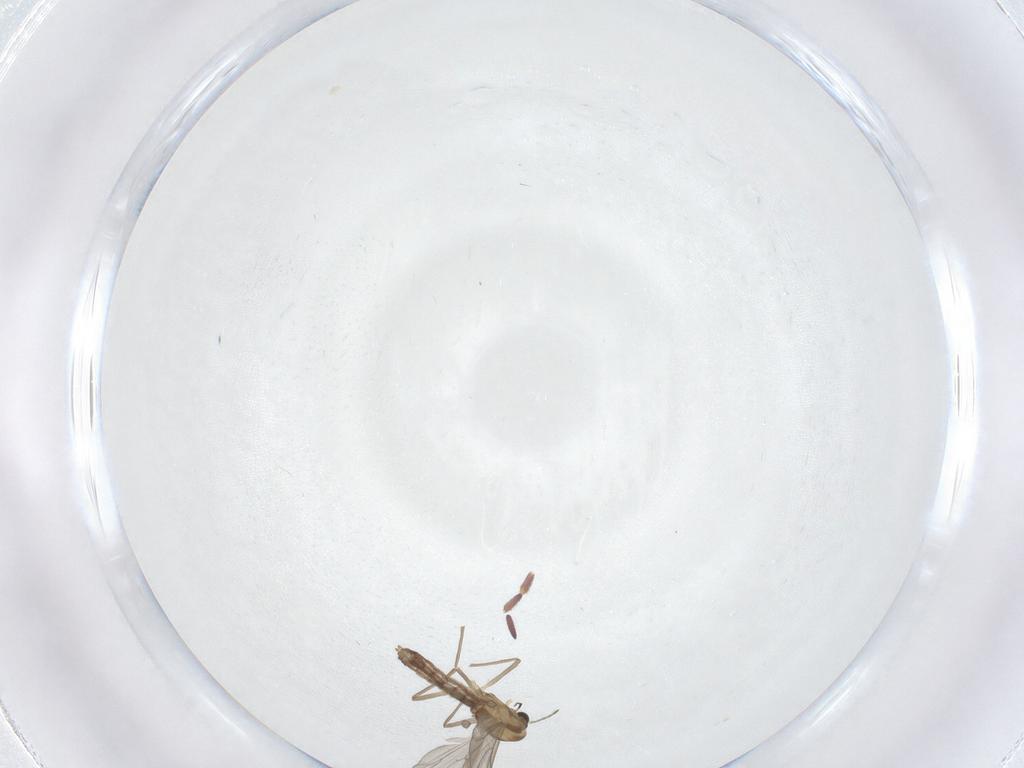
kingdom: Animalia
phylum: Arthropoda
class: Insecta
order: Diptera
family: Chironomidae
